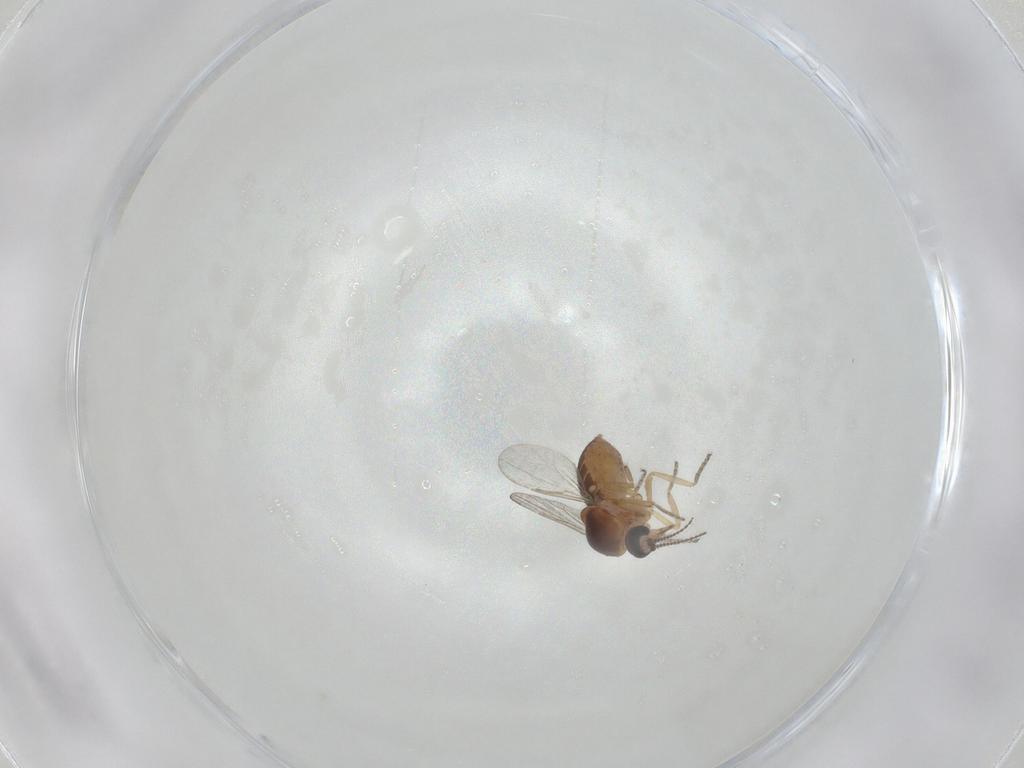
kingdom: Animalia
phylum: Arthropoda
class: Insecta
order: Diptera
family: Ceratopogonidae
